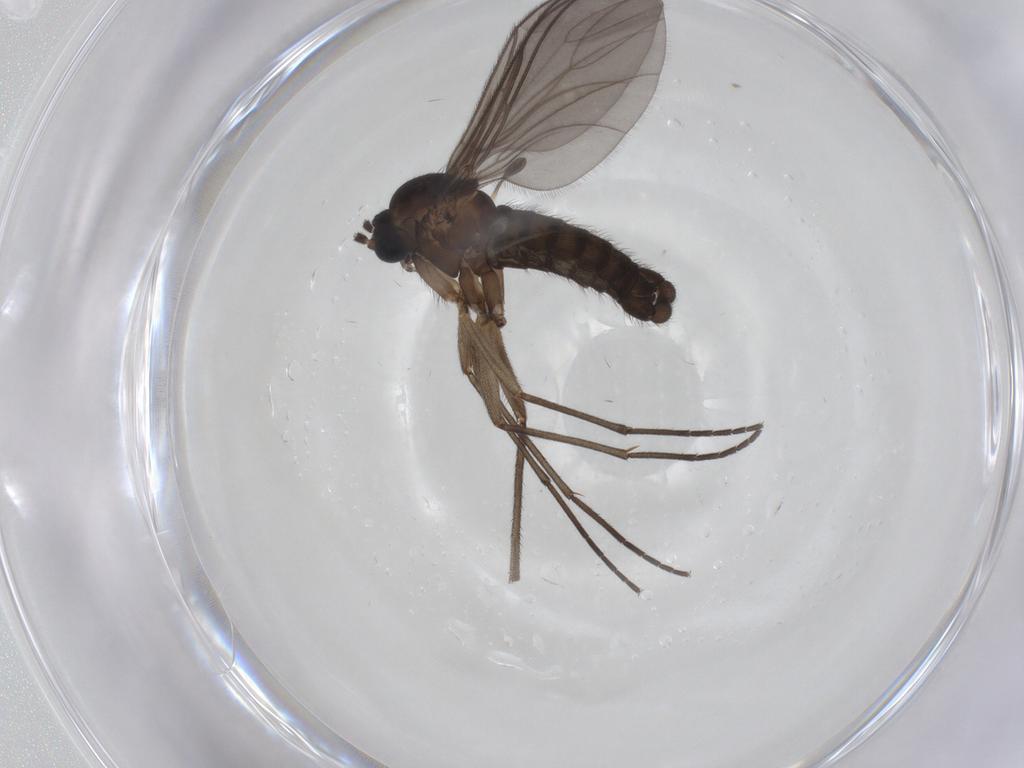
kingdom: Animalia
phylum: Arthropoda
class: Insecta
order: Diptera
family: Sciaridae
